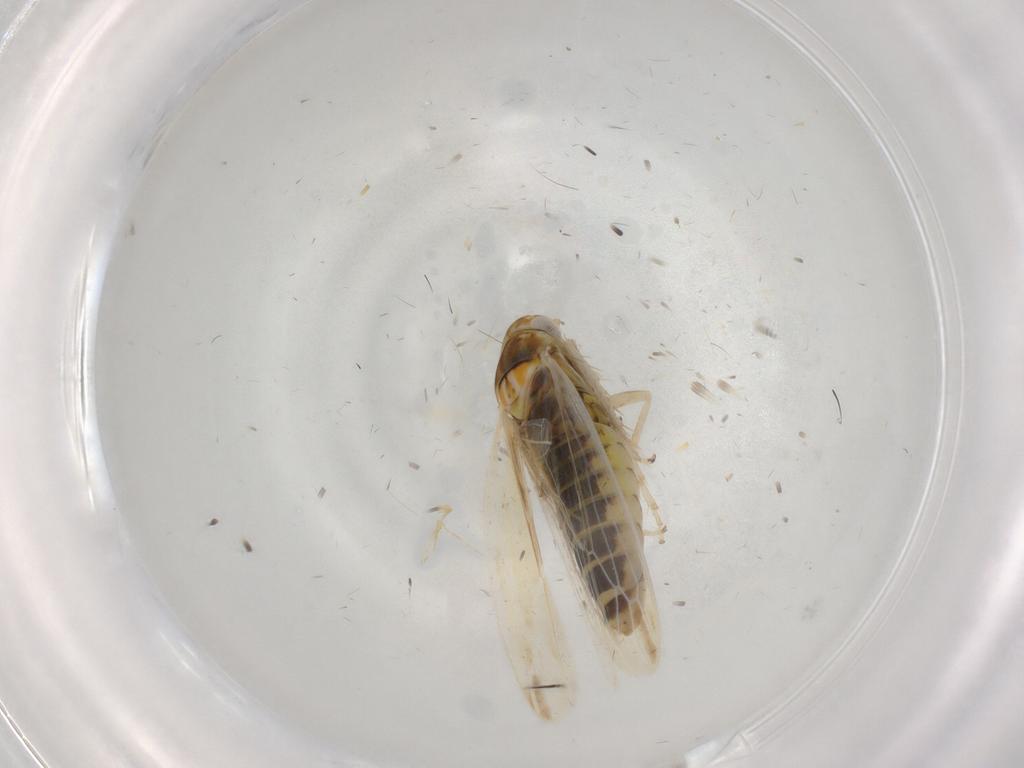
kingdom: Animalia
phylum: Arthropoda
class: Insecta
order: Hemiptera
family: Cicadellidae
